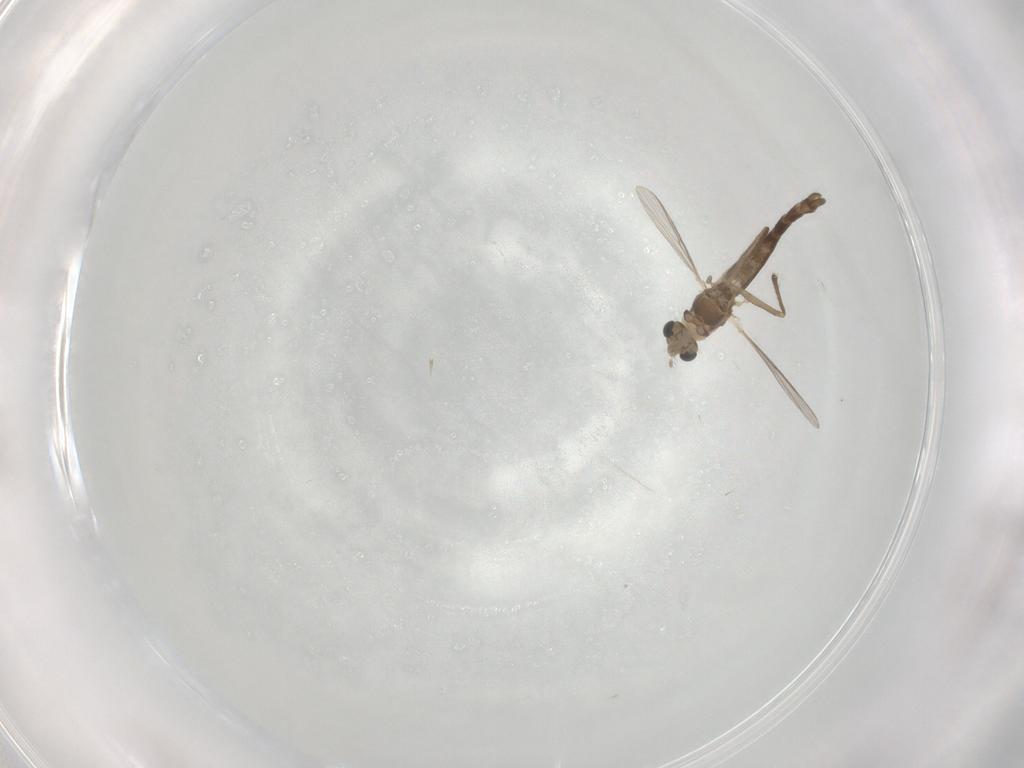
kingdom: Animalia
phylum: Arthropoda
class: Insecta
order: Diptera
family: Chironomidae
